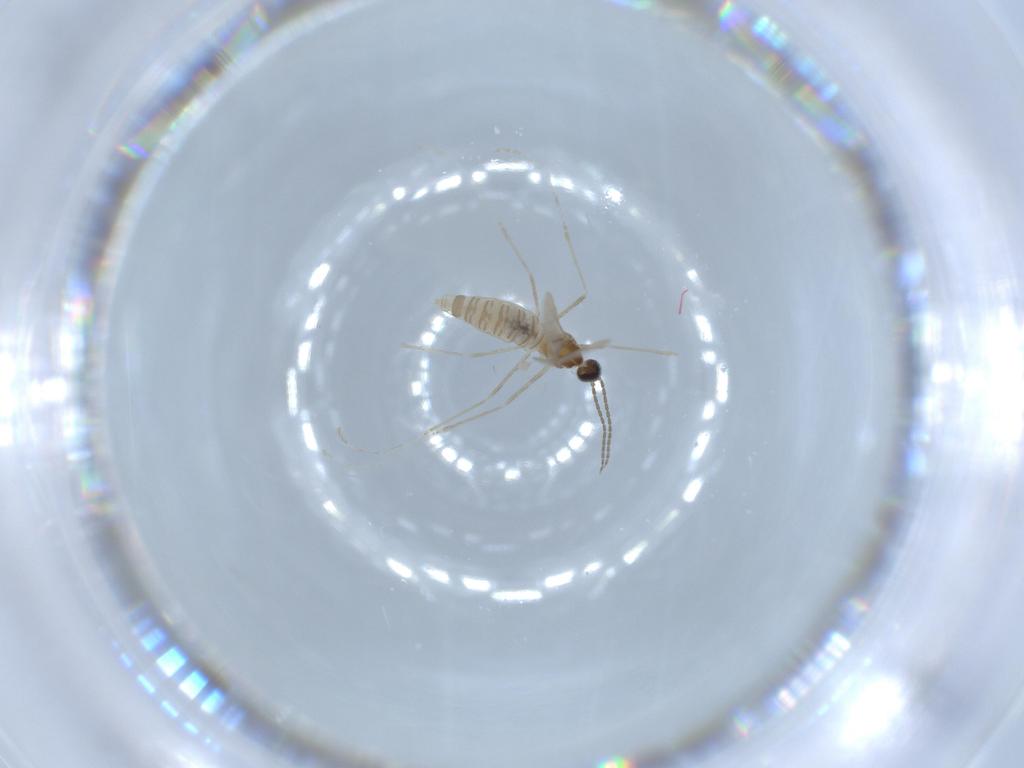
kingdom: Animalia
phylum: Arthropoda
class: Insecta
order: Diptera
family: Cecidomyiidae
